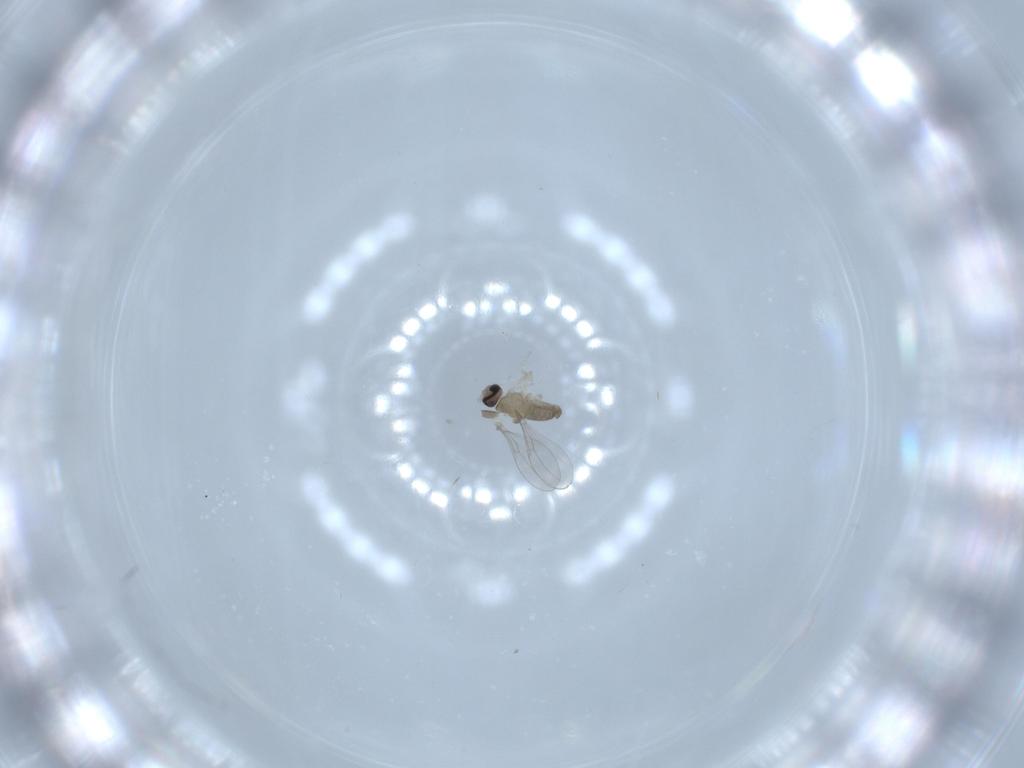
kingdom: Animalia
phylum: Arthropoda
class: Insecta
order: Diptera
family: Cecidomyiidae
